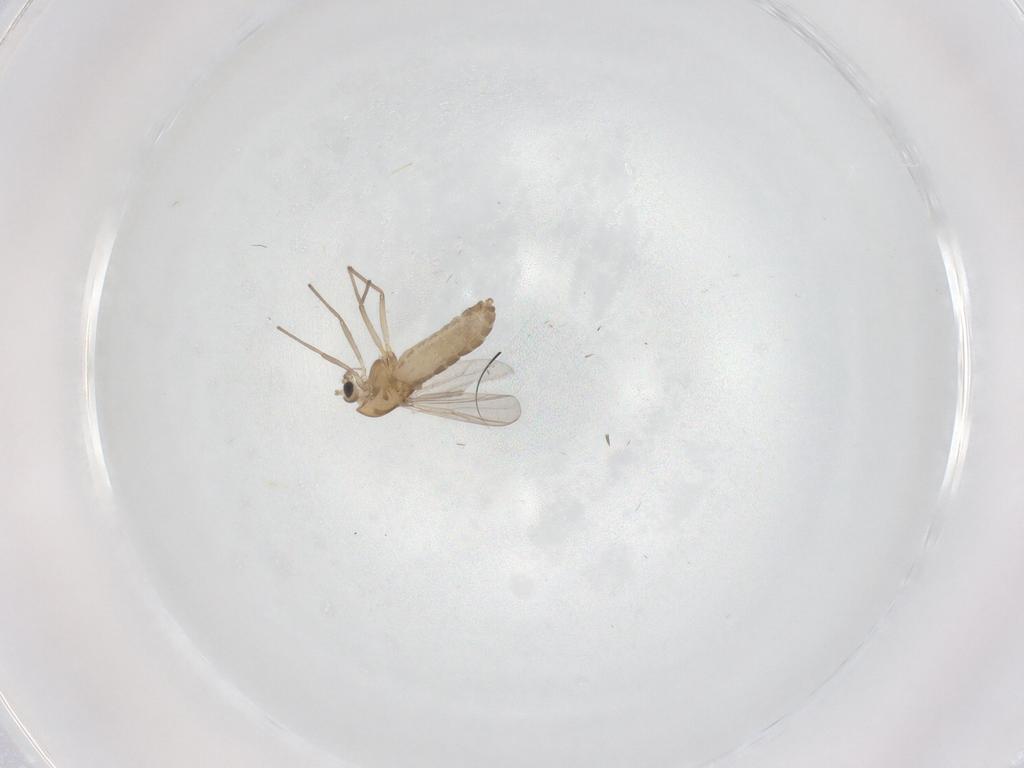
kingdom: Animalia
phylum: Arthropoda
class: Insecta
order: Diptera
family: Chironomidae
